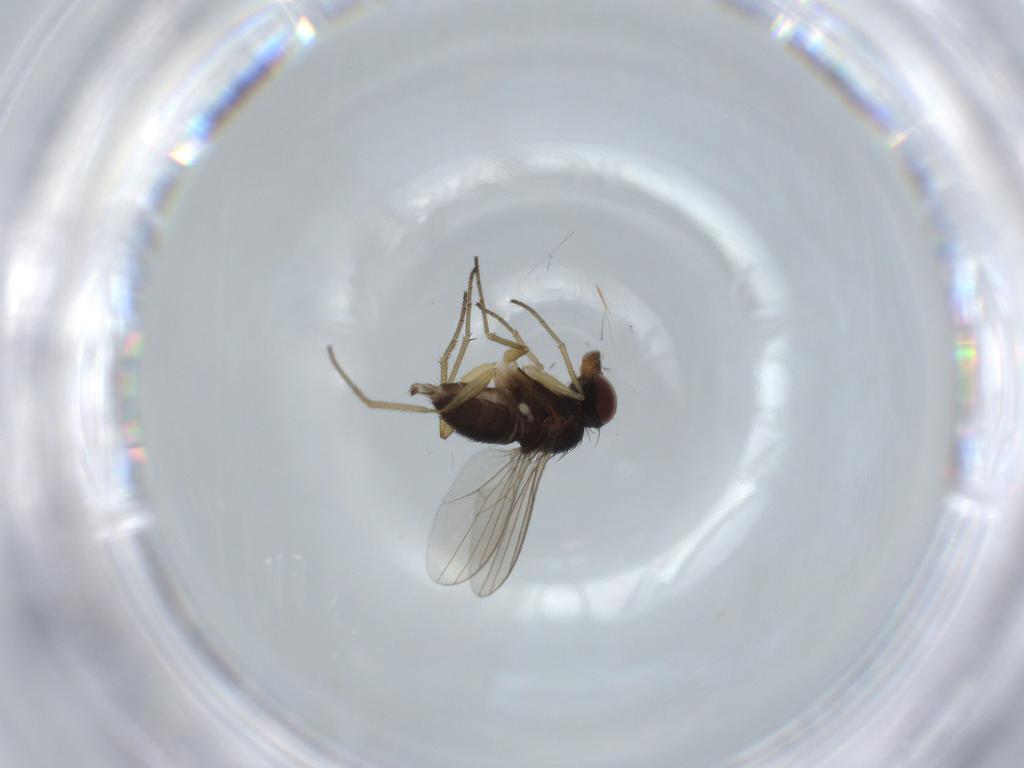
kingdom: Animalia
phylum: Arthropoda
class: Insecta
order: Diptera
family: Dolichopodidae
